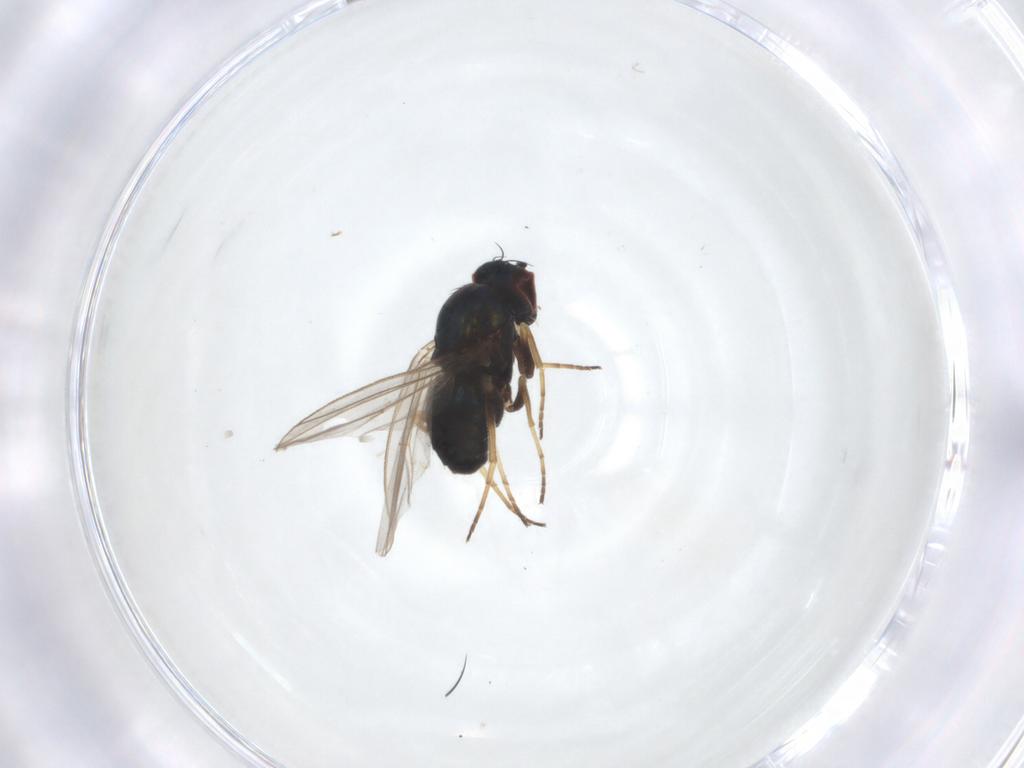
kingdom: Animalia
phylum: Arthropoda
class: Insecta
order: Diptera
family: Dolichopodidae
